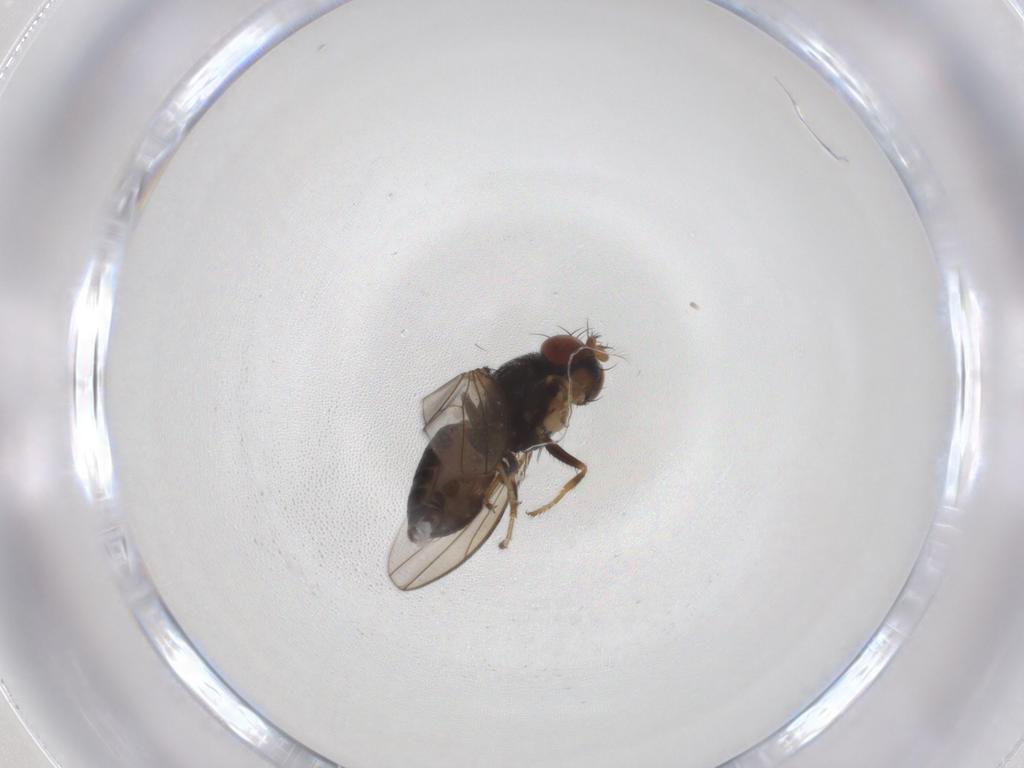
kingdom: Animalia
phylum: Arthropoda
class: Insecta
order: Diptera
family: Ephydridae
